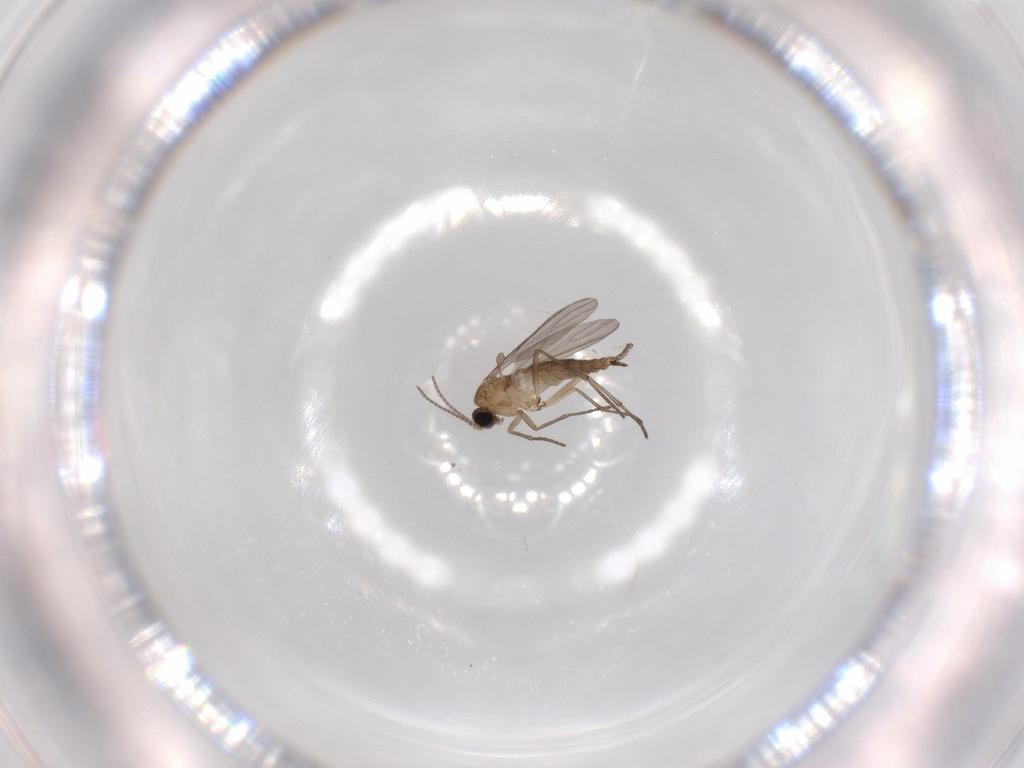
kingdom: Animalia
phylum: Arthropoda
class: Insecta
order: Diptera
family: Sciaridae
